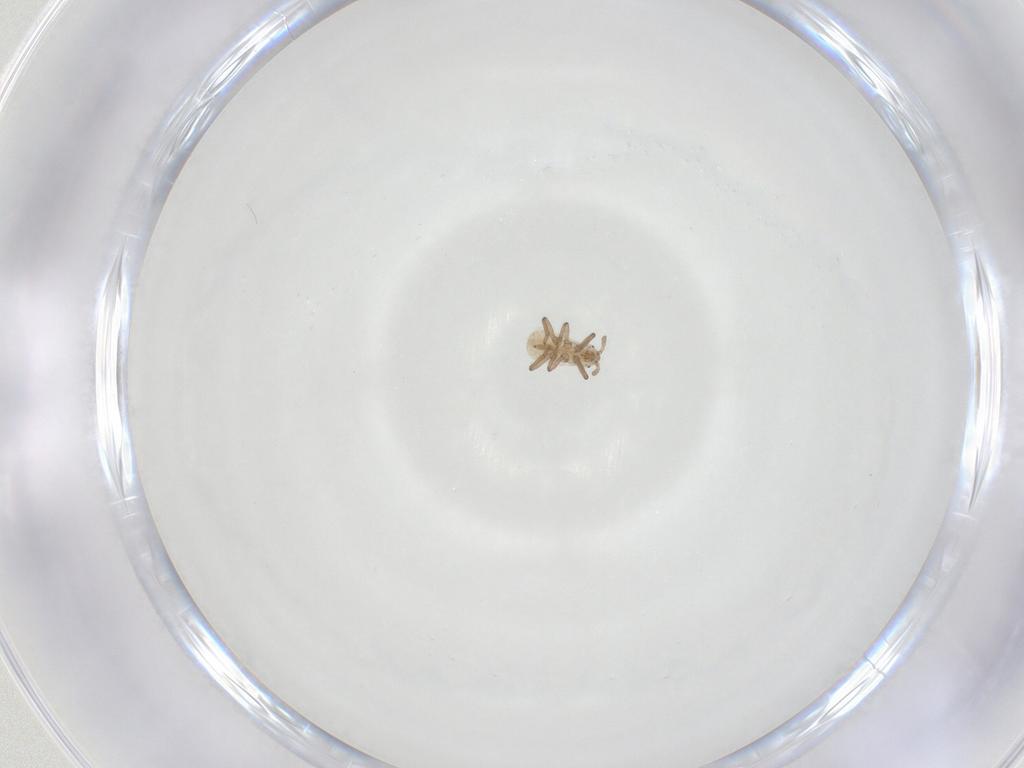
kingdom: Animalia
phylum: Arthropoda
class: Insecta
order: Hemiptera
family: Aphididae
